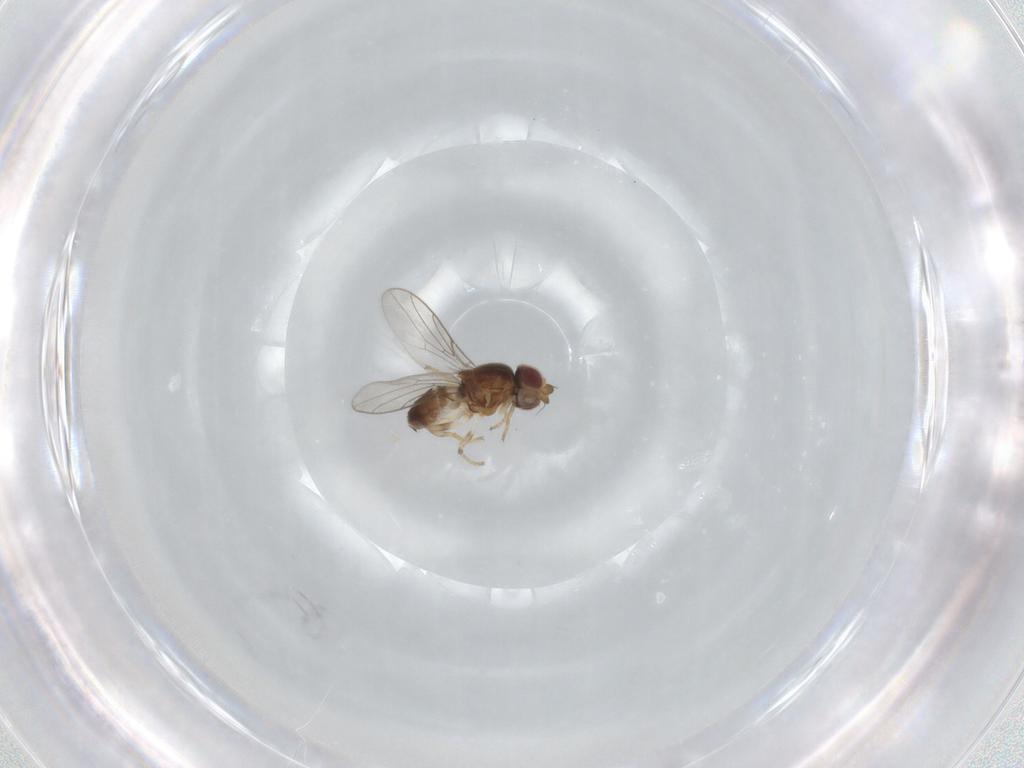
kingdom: Animalia
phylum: Arthropoda
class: Insecta
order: Diptera
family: Chloropidae
